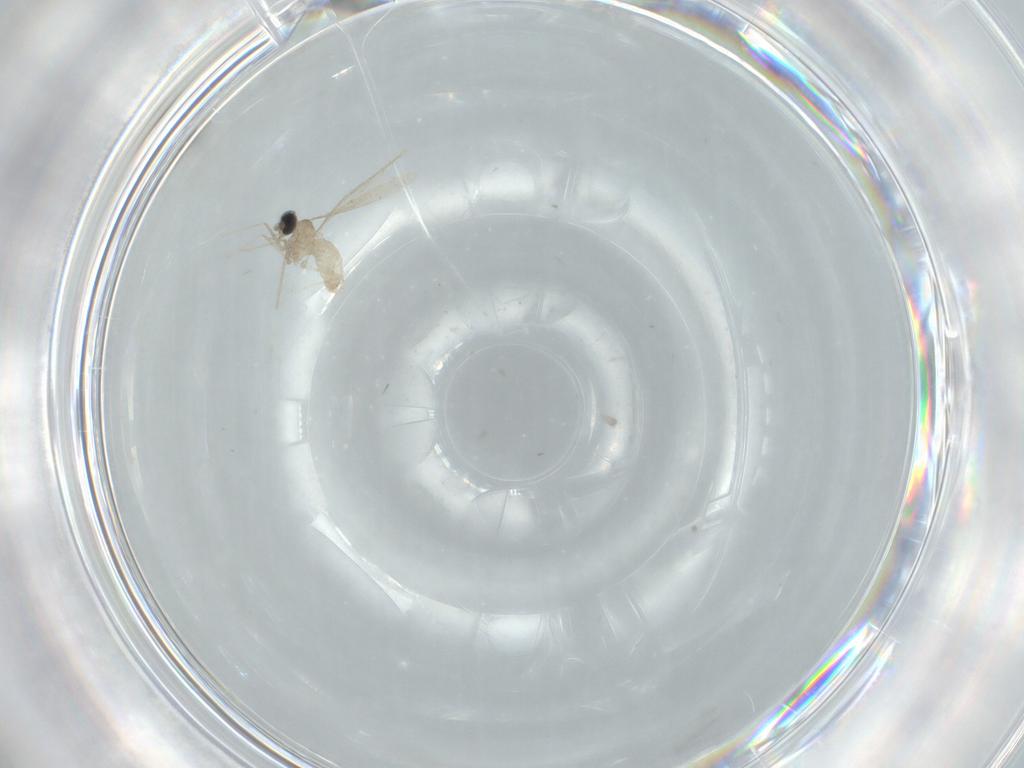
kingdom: Animalia
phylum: Arthropoda
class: Insecta
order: Diptera
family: Cecidomyiidae
